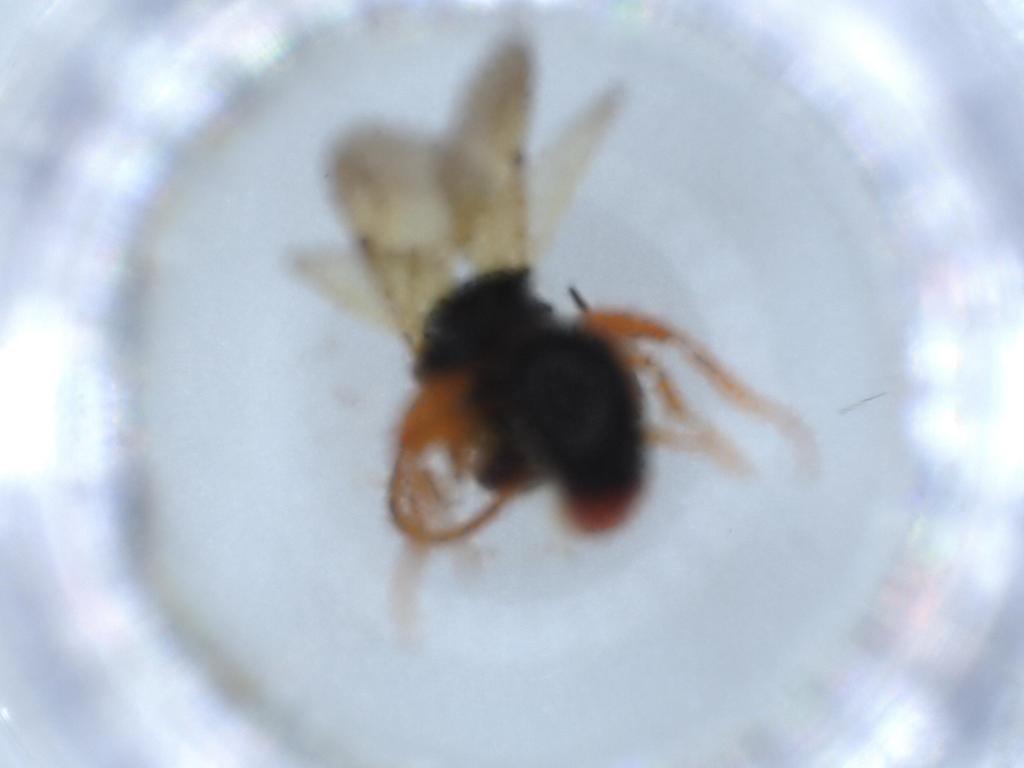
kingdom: Animalia
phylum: Arthropoda
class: Insecta
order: Hymenoptera
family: Bethylidae
